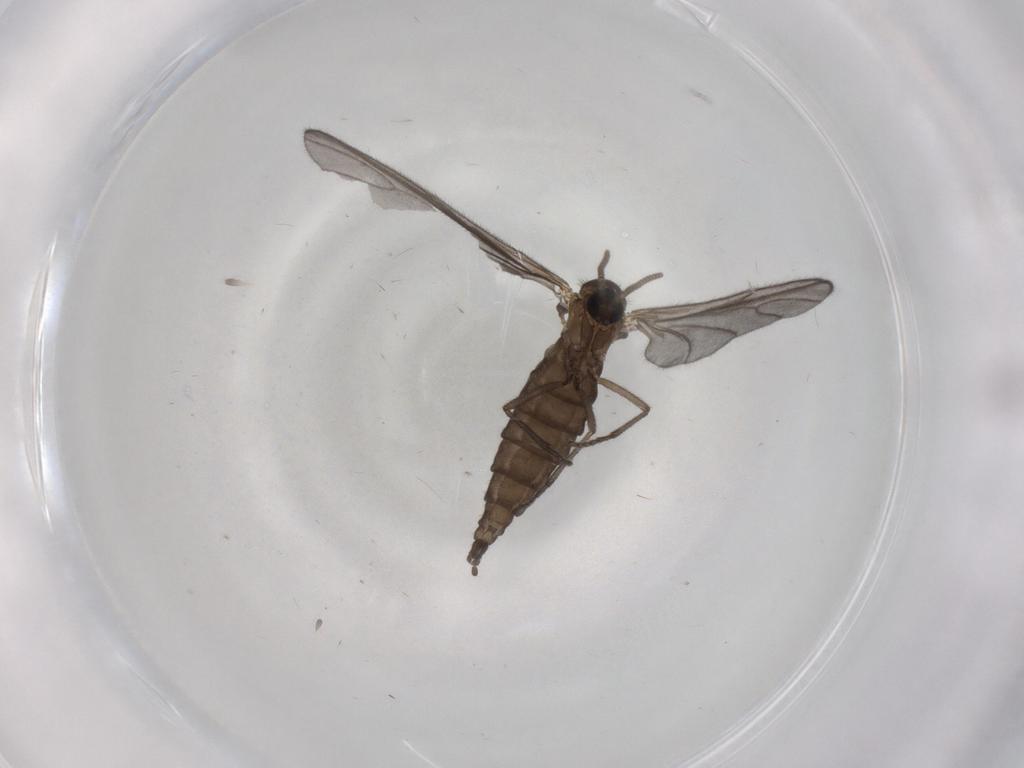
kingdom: Animalia
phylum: Arthropoda
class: Insecta
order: Diptera
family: Sciaridae
